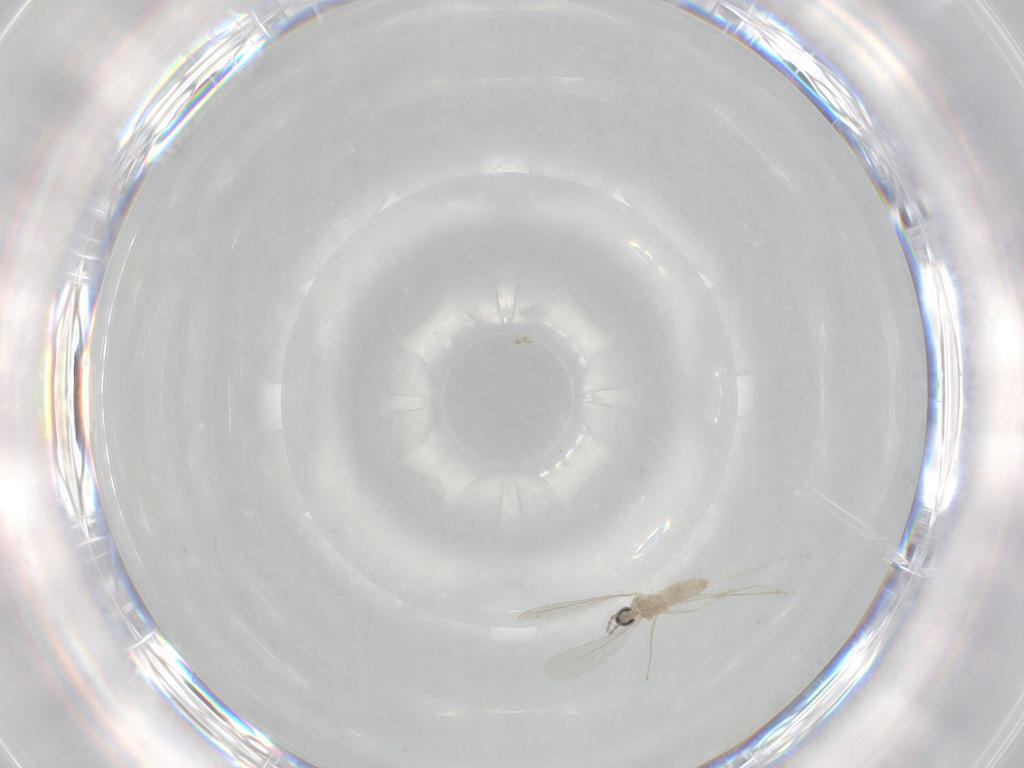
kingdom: Animalia
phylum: Arthropoda
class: Insecta
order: Diptera
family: Cecidomyiidae
